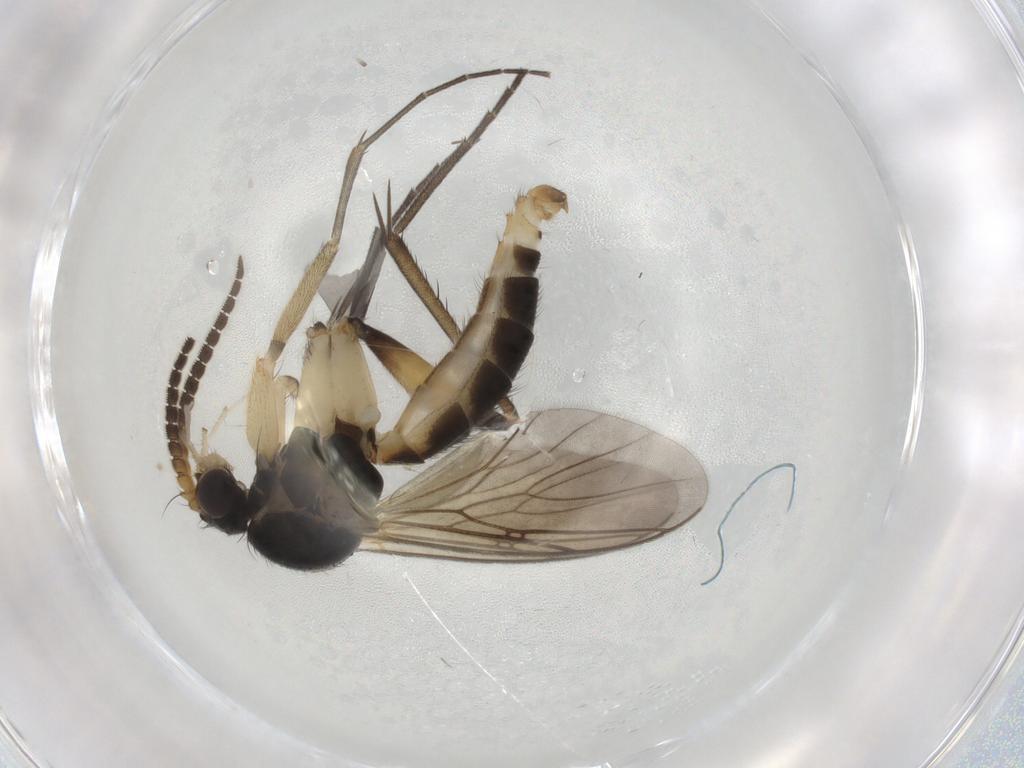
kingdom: Animalia
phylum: Arthropoda
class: Insecta
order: Diptera
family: Mycetophilidae
